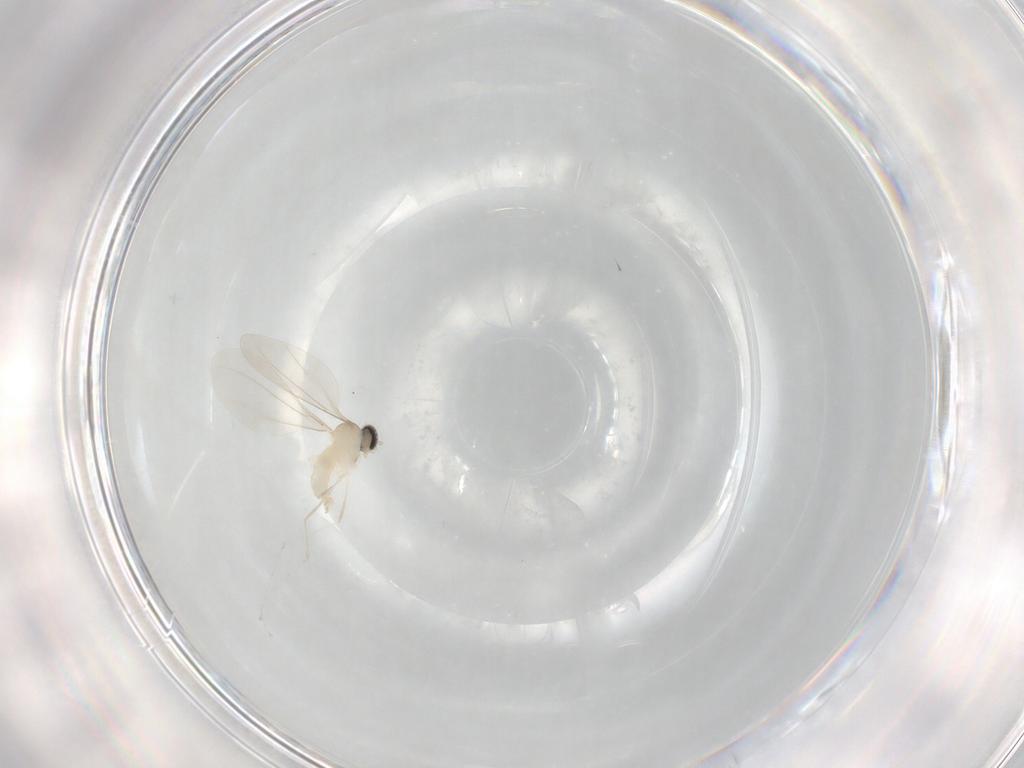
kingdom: Animalia
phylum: Arthropoda
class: Insecta
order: Diptera
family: Cecidomyiidae
